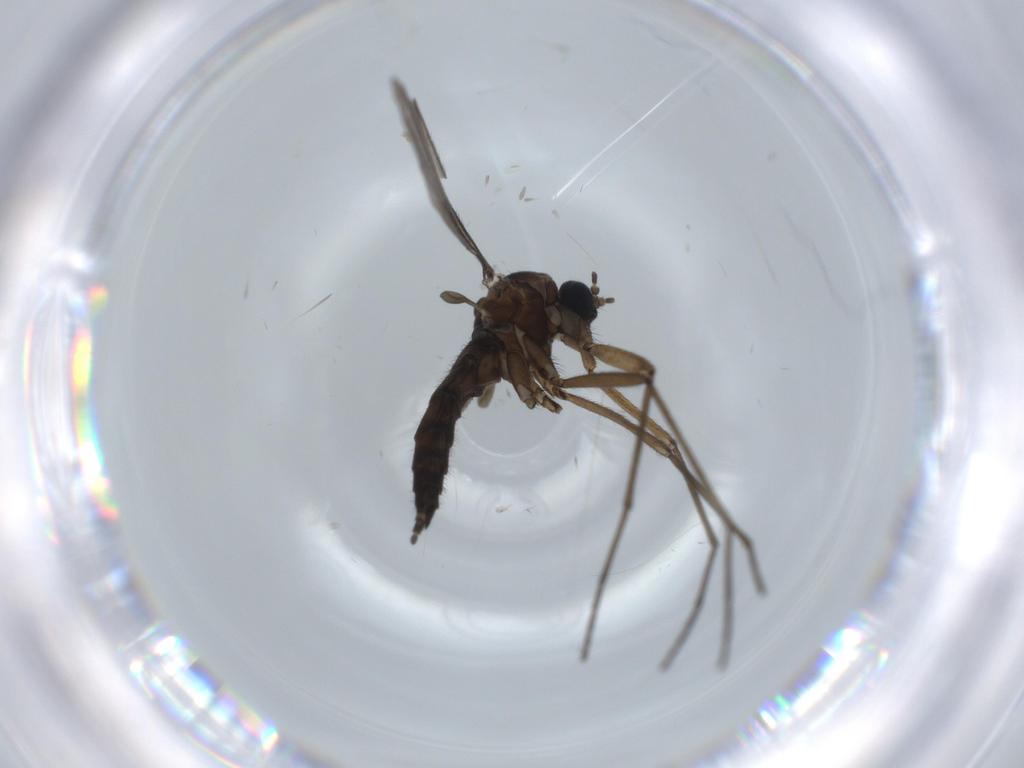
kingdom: Animalia
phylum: Arthropoda
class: Insecta
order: Diptera
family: Sciaridae
